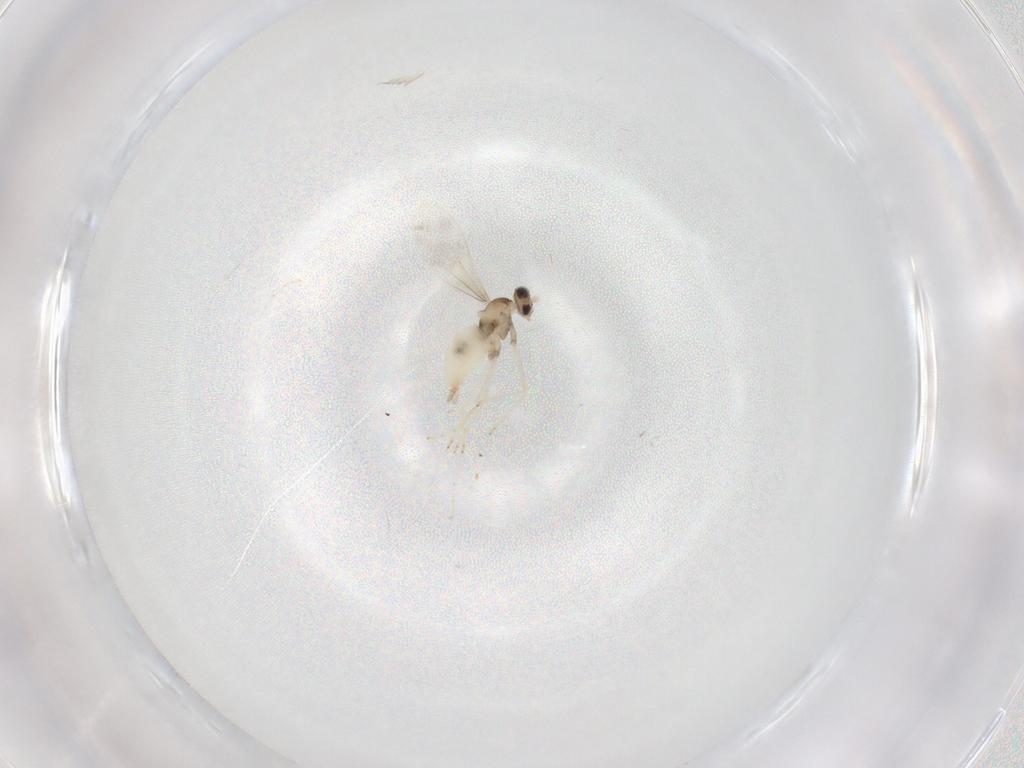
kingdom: Animalia
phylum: Arthropoda
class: Insecta
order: Diptera
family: Cecidomyiidae
